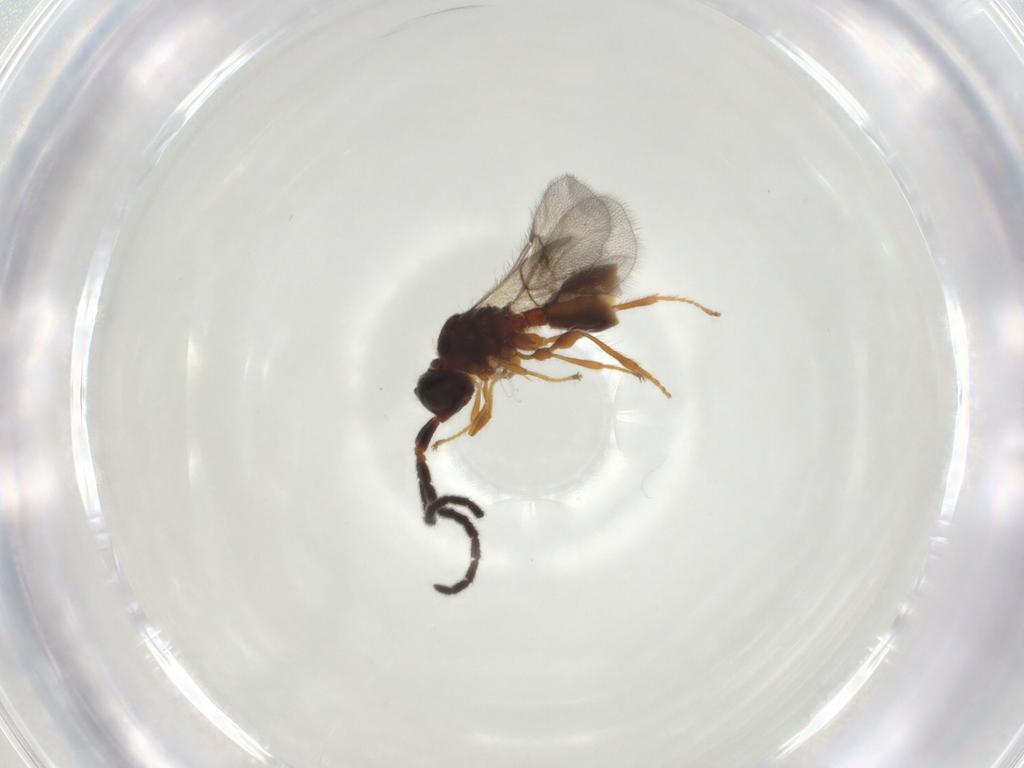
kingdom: Animalia
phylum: Arthropoda
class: Insecta
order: Hymenoptera
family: Diapriidae
